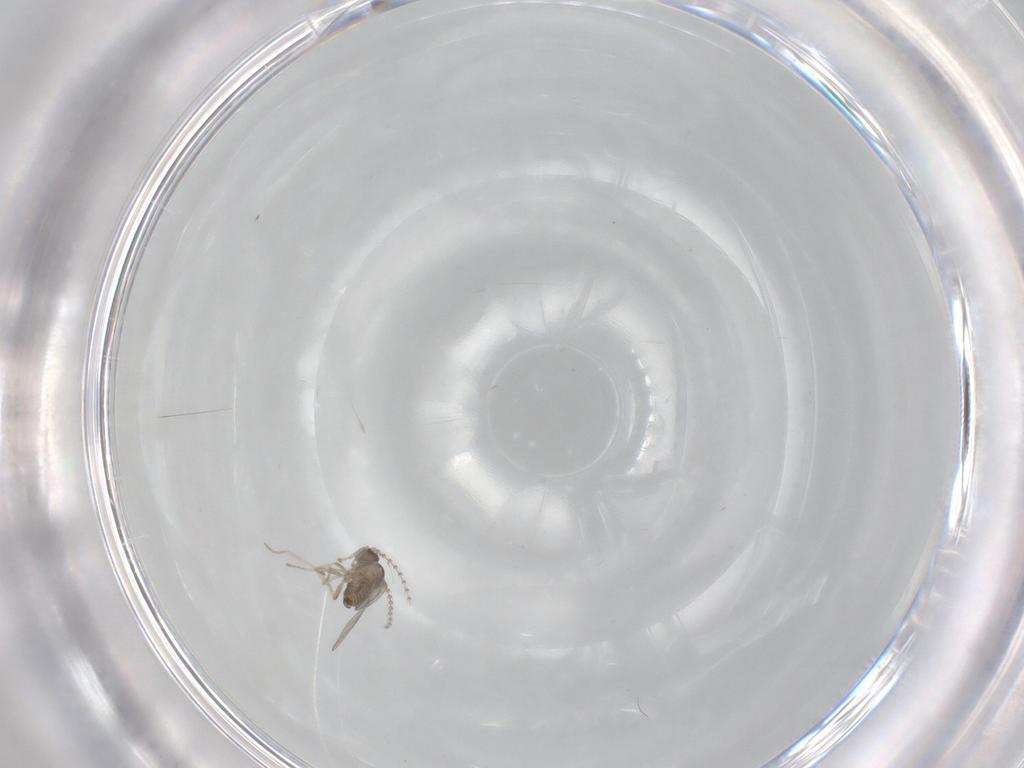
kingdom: Animalia
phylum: Arthropoda
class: Insecta
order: Diptera
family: Cecidomyiidae
